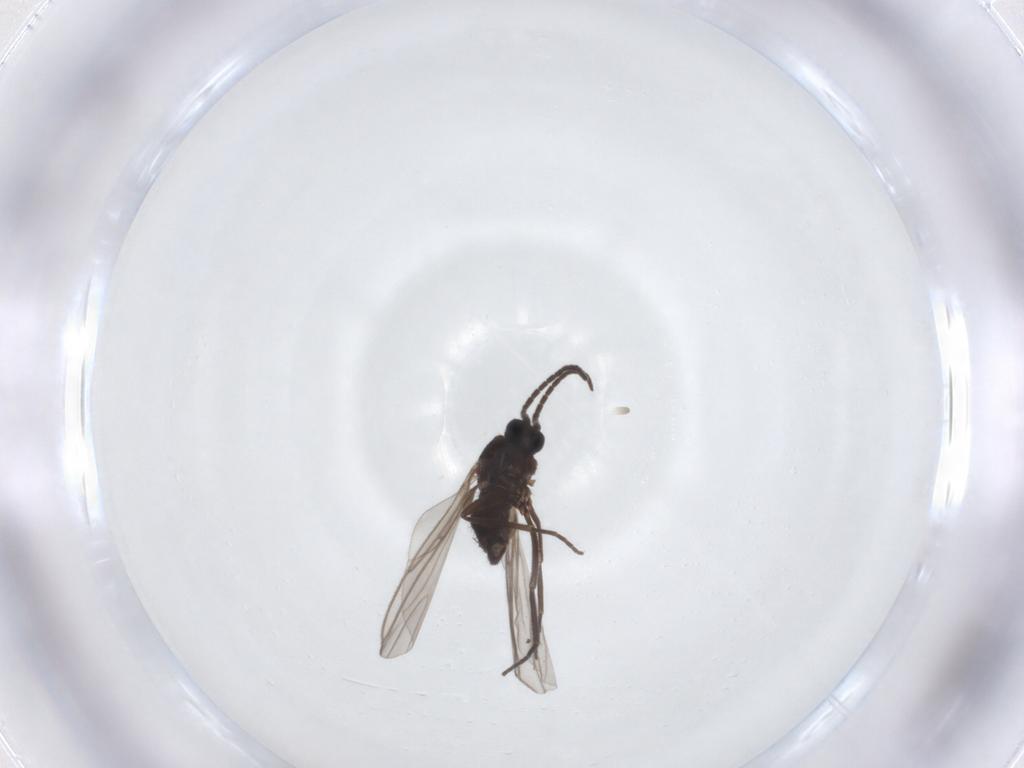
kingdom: Animalia
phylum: Arthropoda
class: Insecta
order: Diptera
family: Sciaridae
